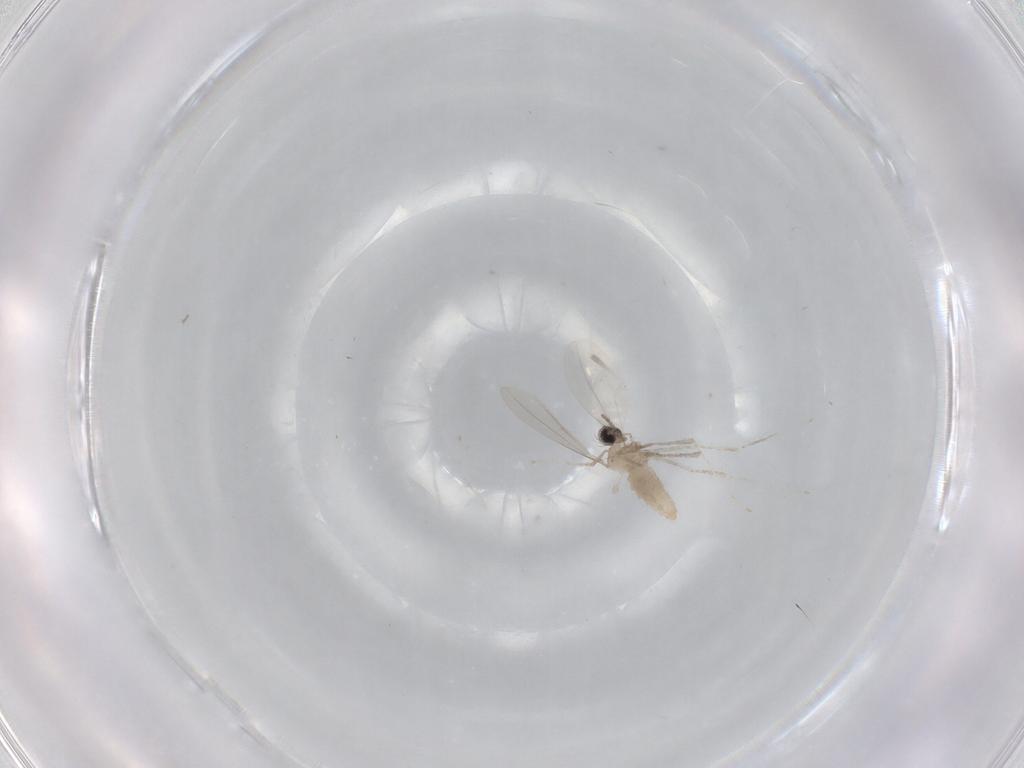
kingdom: Animalia
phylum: Arthropoda
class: Insecta
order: Diptera
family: Cecidomyiidae
